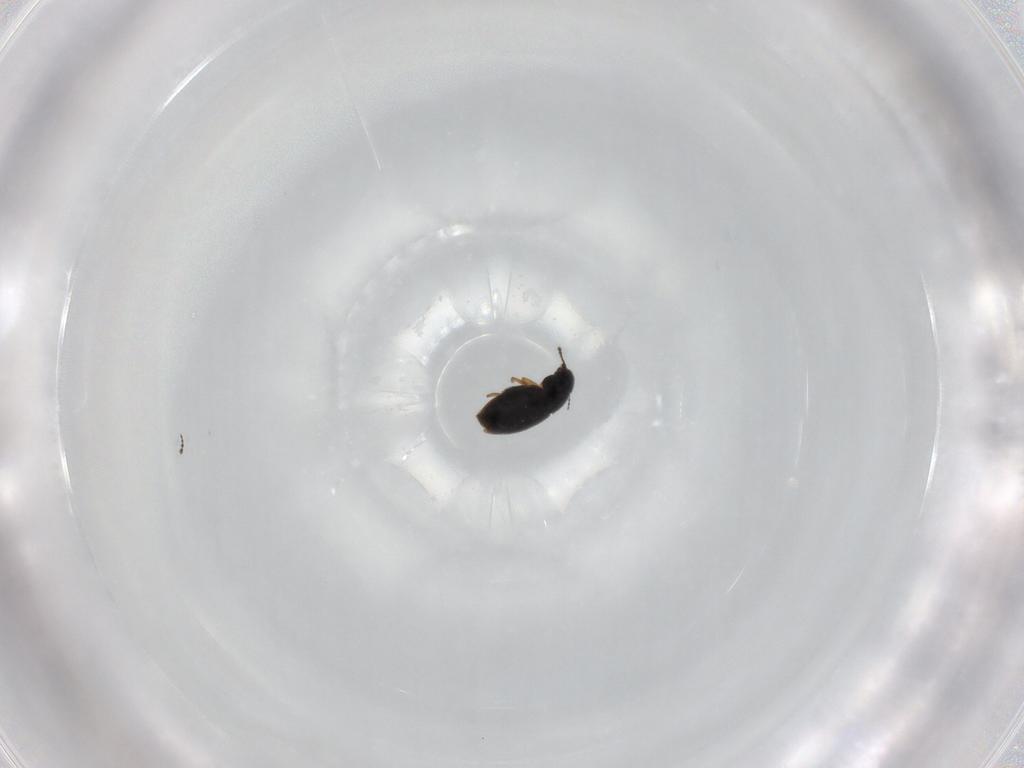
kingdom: Animalia
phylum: Arthropoda
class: Insecta
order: Coleoptera
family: Ptiliidae
